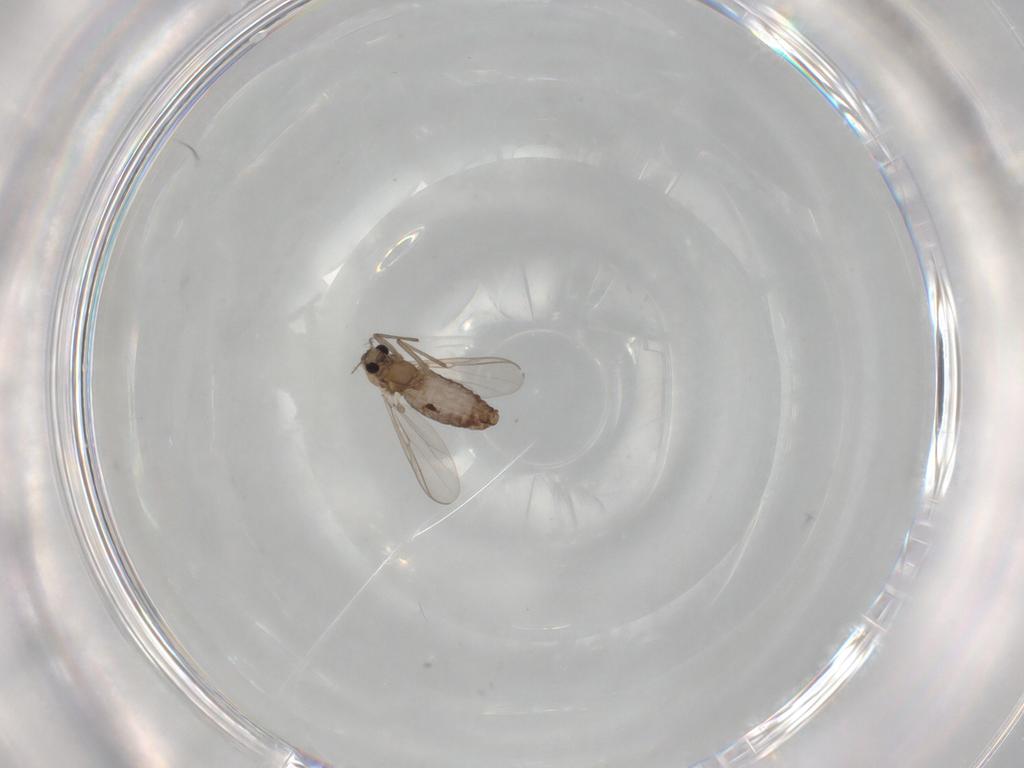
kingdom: Animalia
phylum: Arthropoda
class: Insecta
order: Diptera
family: Chironomidae
